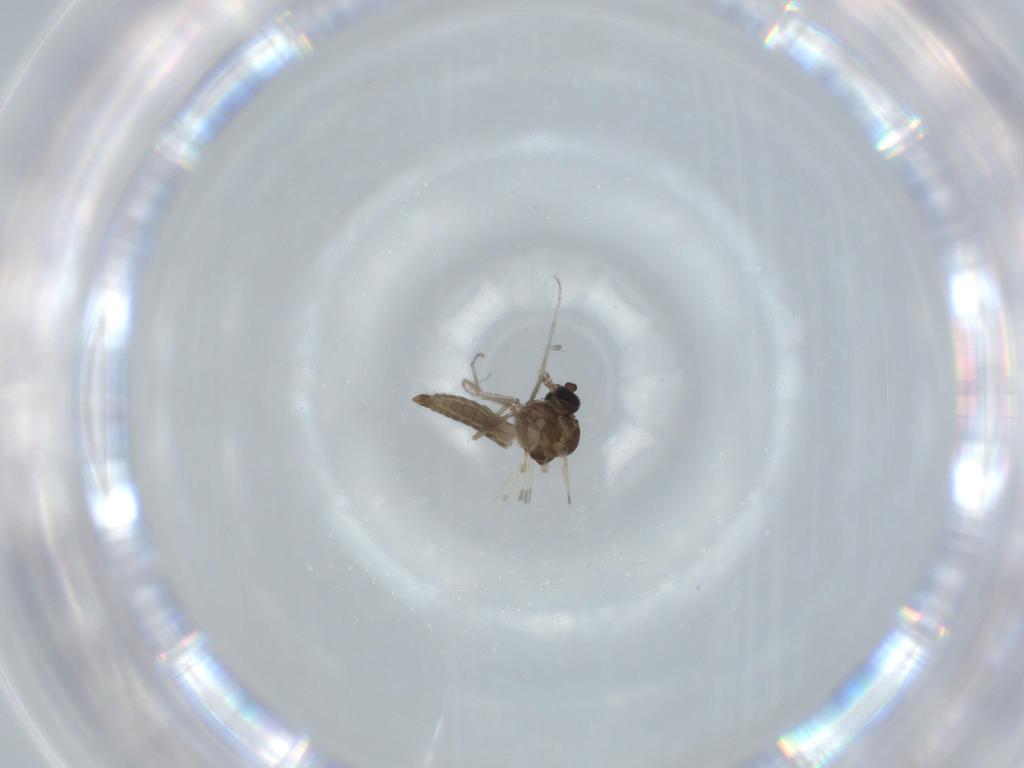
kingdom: Animalia
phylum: Arthropoda
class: Insecta
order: Diptera
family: Ceratopogonidae
